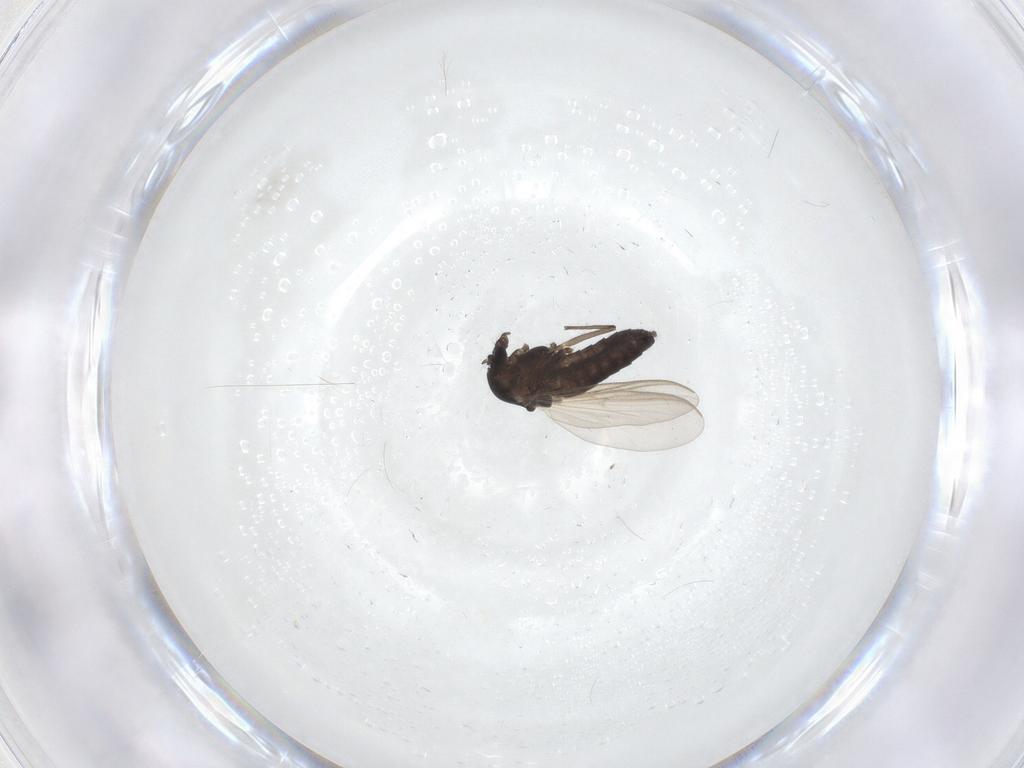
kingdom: Animalia
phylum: Arthropoda
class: Insecta
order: Diptera
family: Chironomidae
